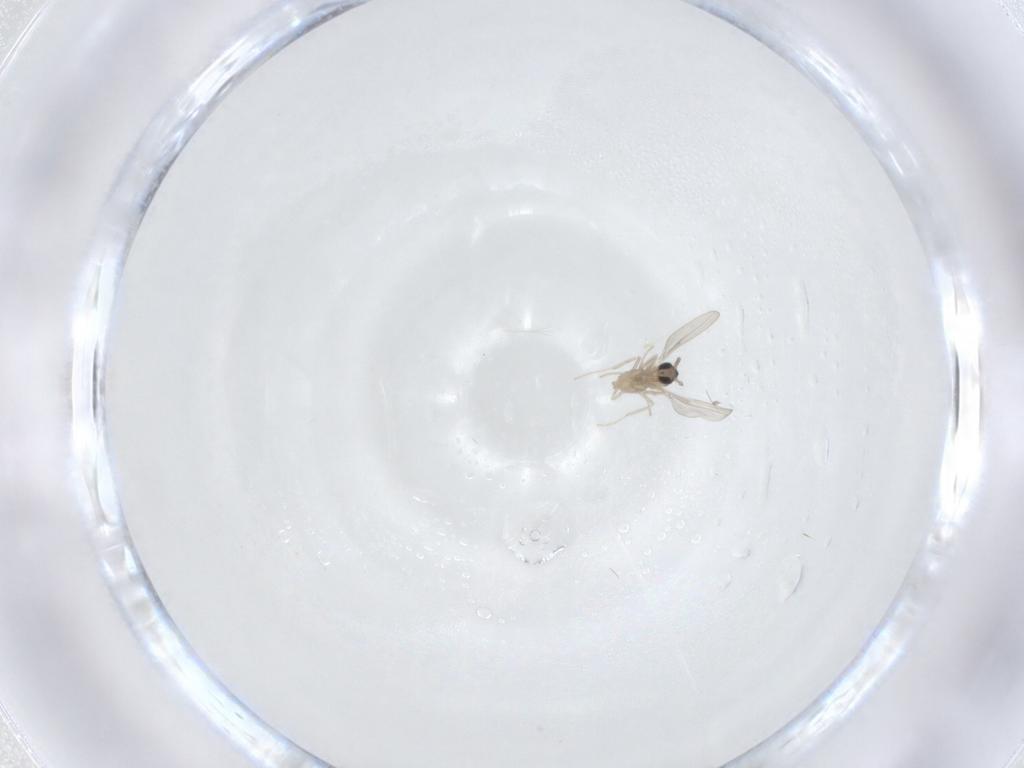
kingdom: Animalia
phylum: Arthropoda
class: Insecta
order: Diptera
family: Sciaridae
